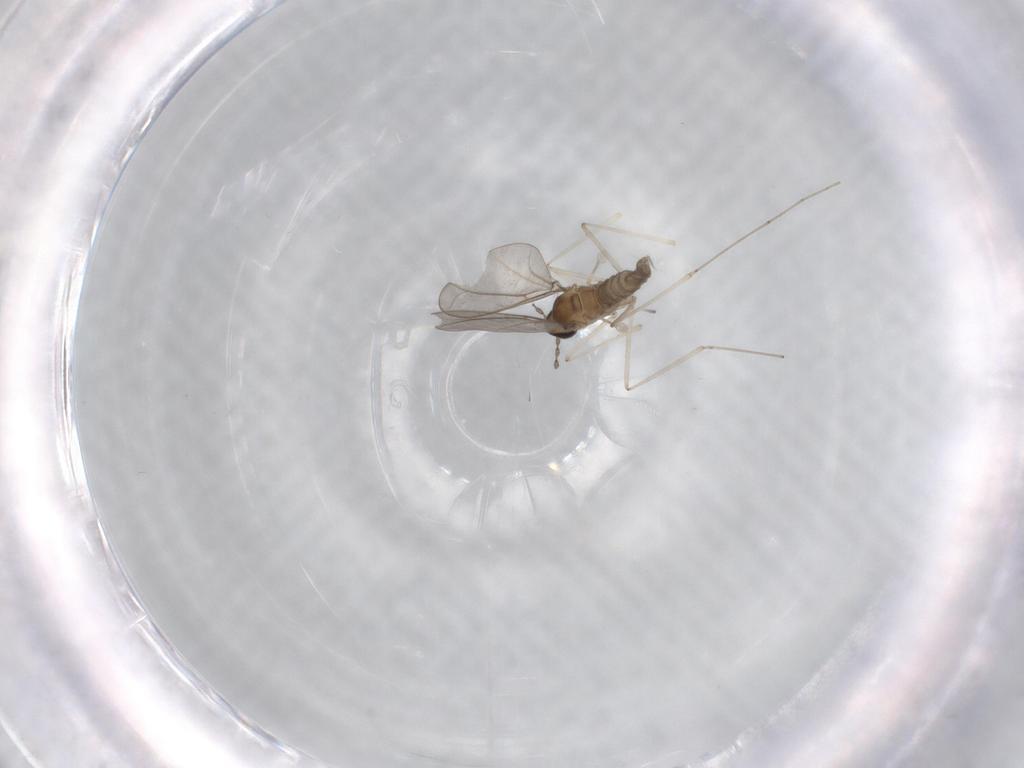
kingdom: Animalia
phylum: Arthropoda
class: Insecta
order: Diptera
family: Cecidomyiidae
